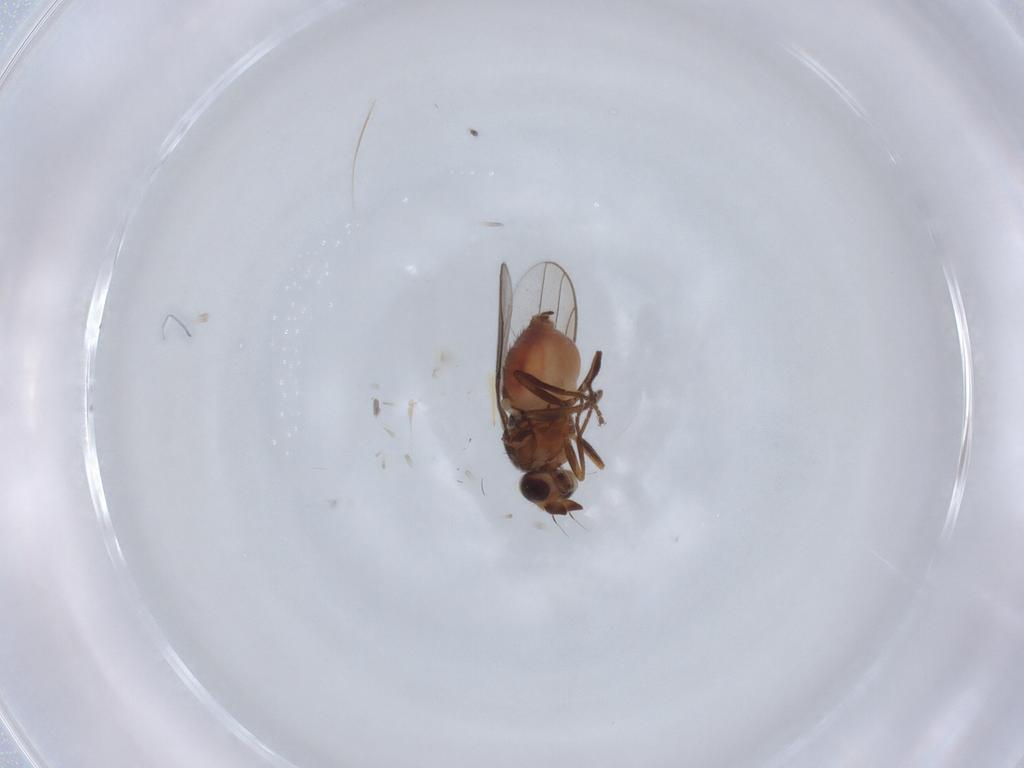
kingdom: Animalia
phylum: Arthropoda
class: Insecta
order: Diptera
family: Chloropidae
